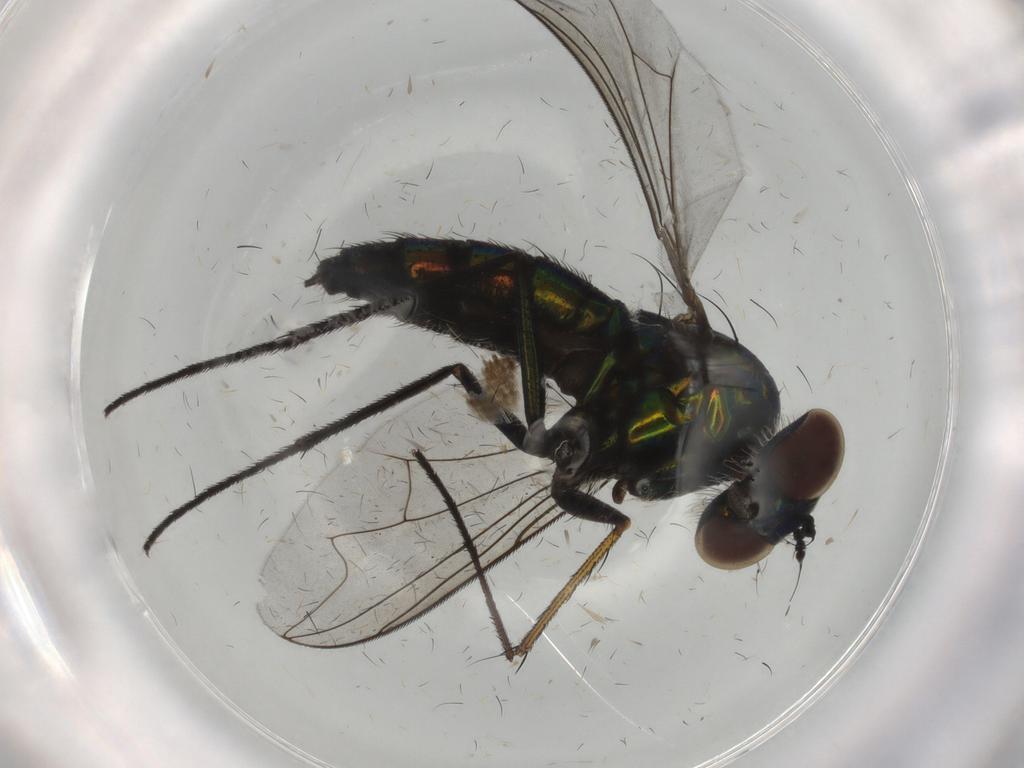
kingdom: Animalia
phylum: Arthropoda
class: Insecta
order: Diptera
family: Dolichopodidae
